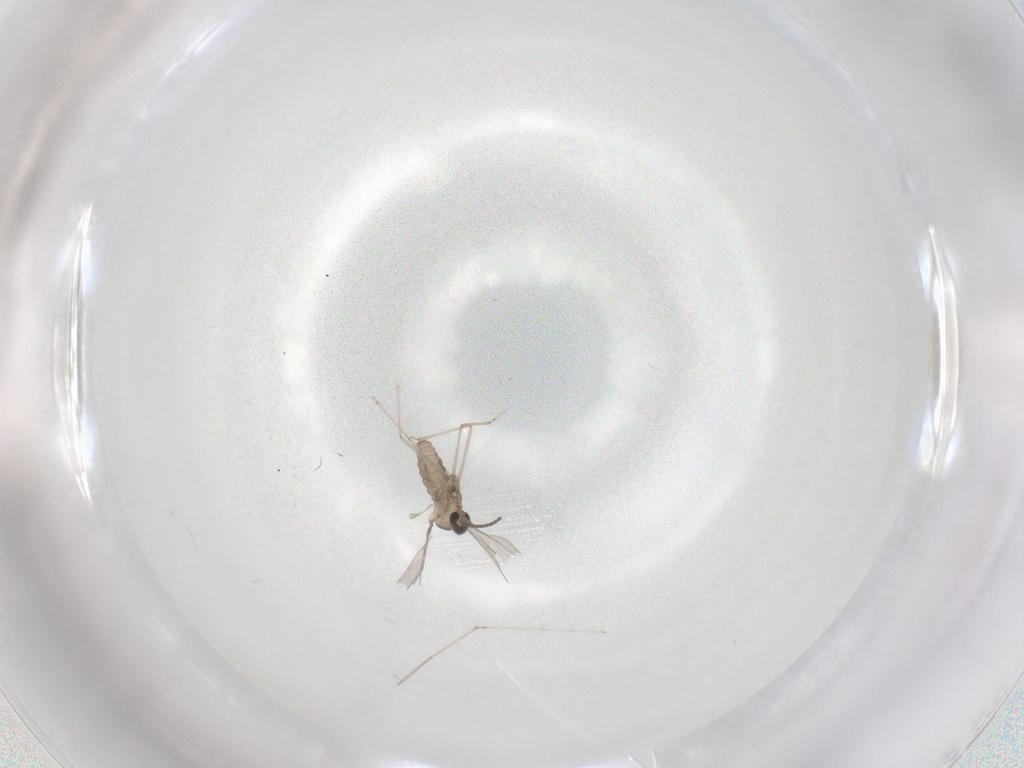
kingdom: Animalia
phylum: Arthropoda
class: Insecta
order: Diptera
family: Cecidomyiidae
